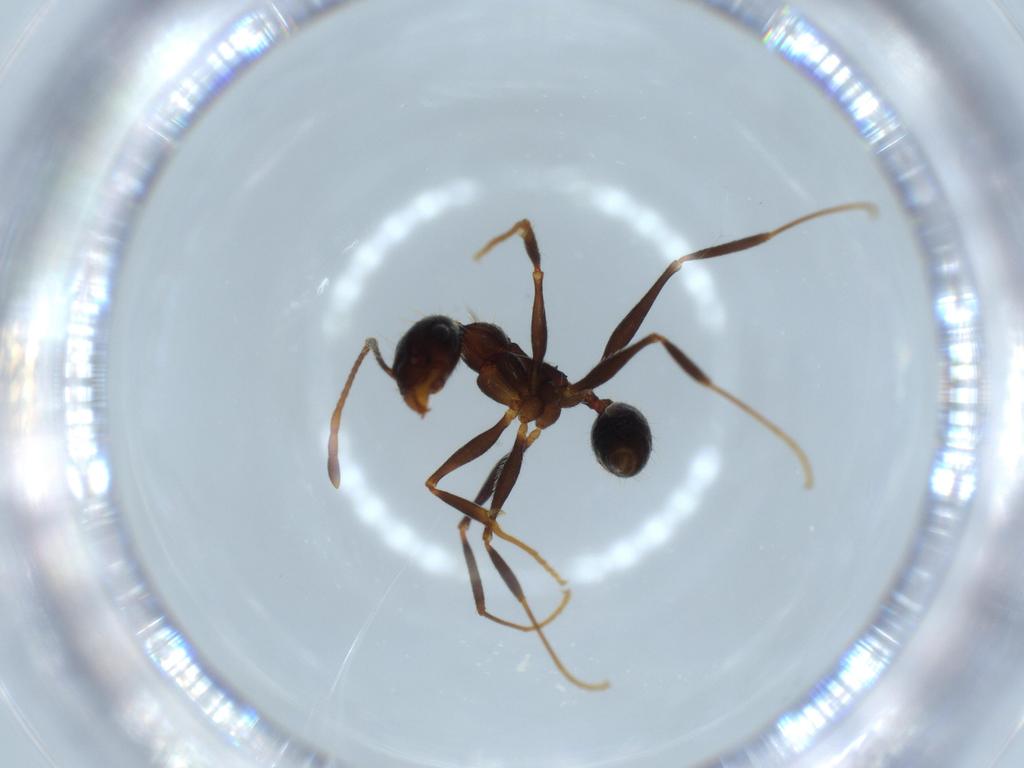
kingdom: Animalia
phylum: Arthropoda
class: Insecta
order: Hymenoptera
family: Formicidae
